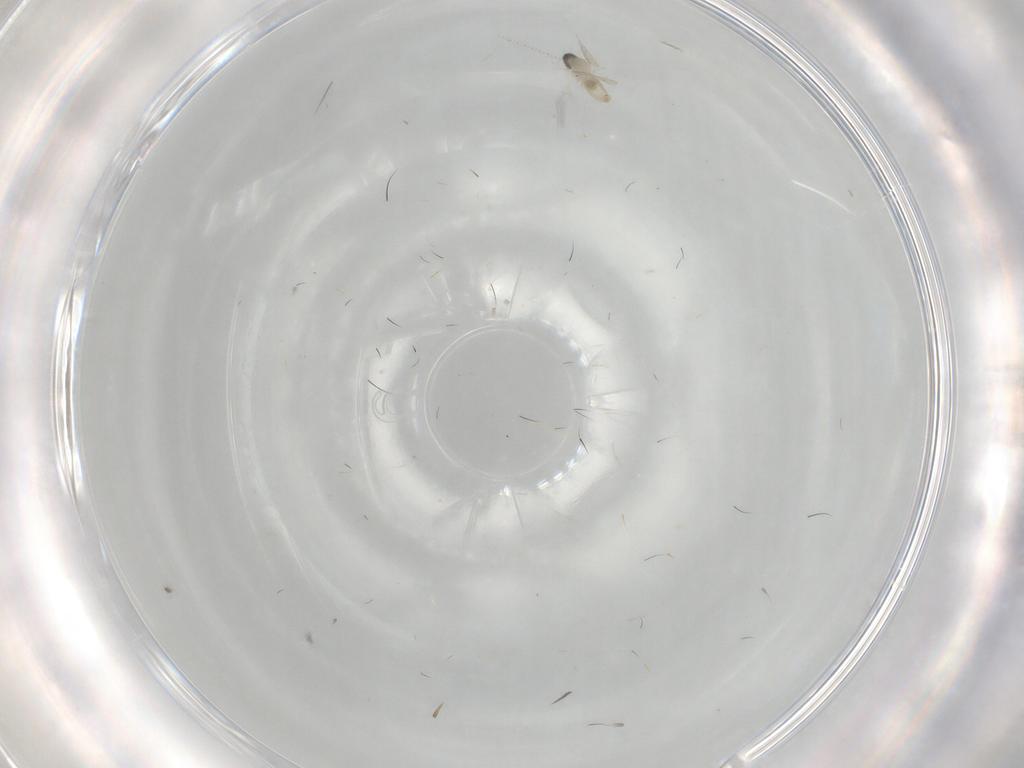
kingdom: Animalia
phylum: Arthropoda
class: Insecta
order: Diptera
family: Cecidomyiidae
